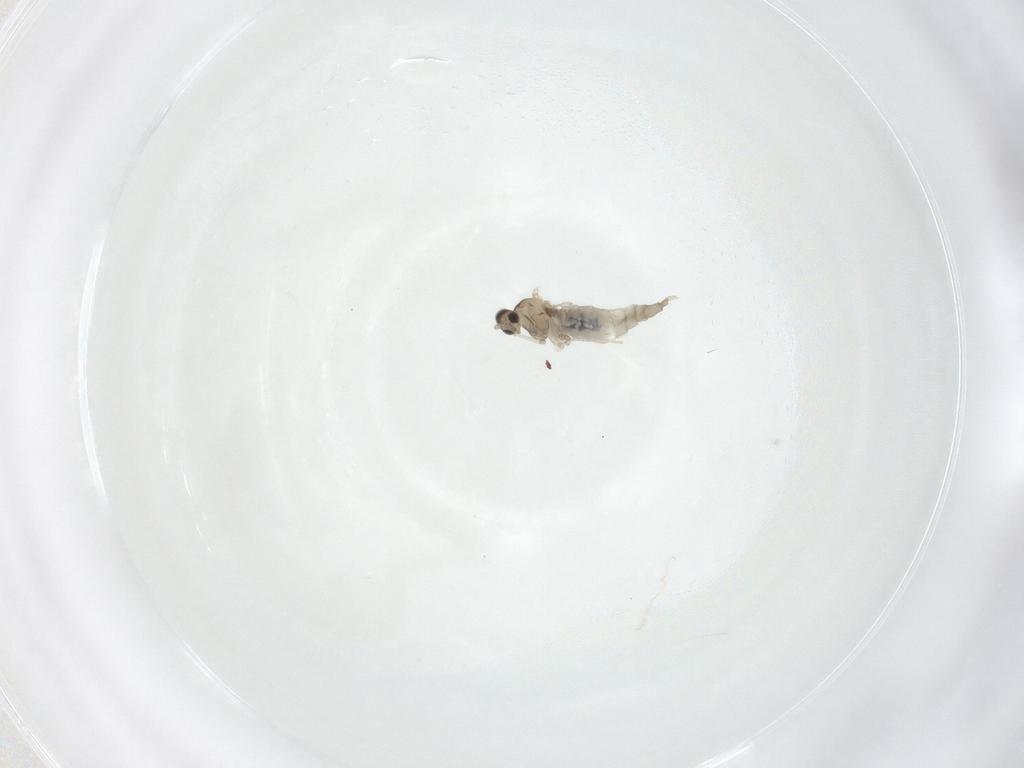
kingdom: Animalia
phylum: Arthropoda
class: Insecta
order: Diptera
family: Cecidomyiidae
